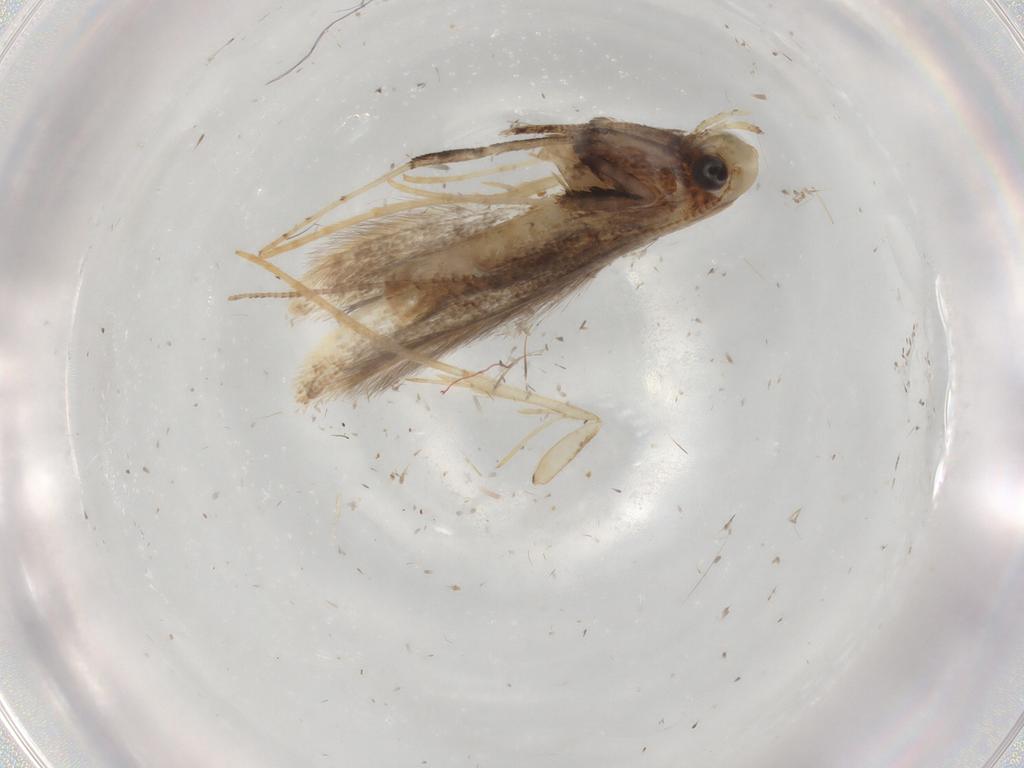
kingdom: Animalia
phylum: Arthropoda
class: Insecta
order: Lepidoptera
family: Gracillariidae
